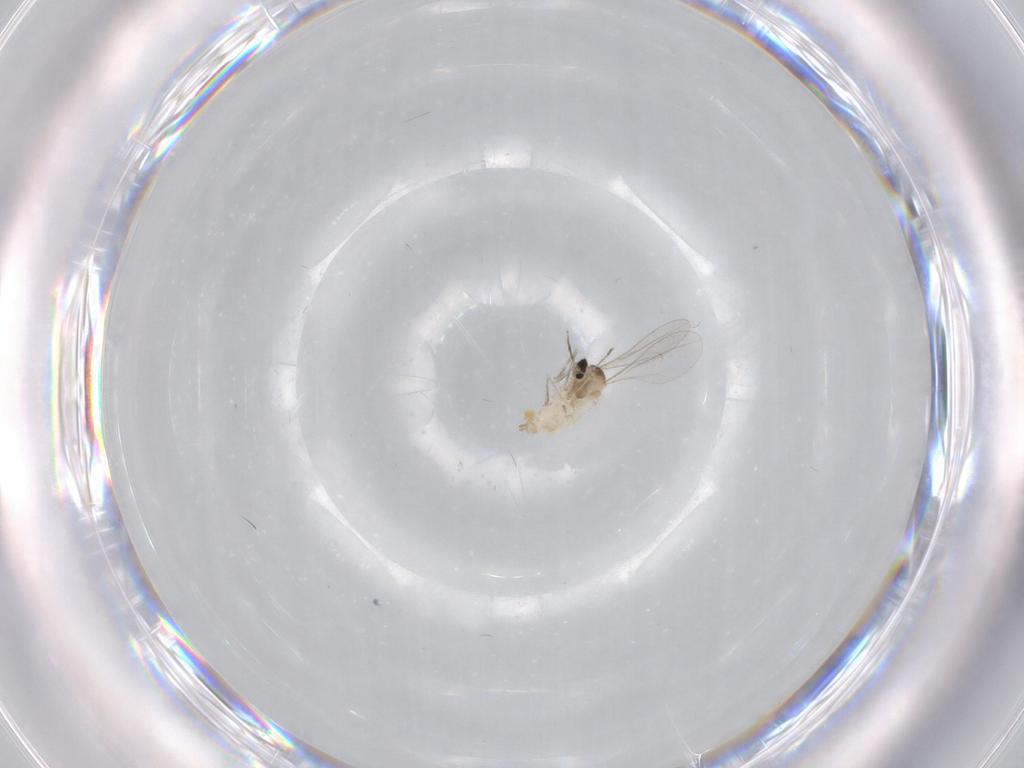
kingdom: Animalia
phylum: Arthropoda
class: Insecta
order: Diptera
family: Cecidomyiidae
